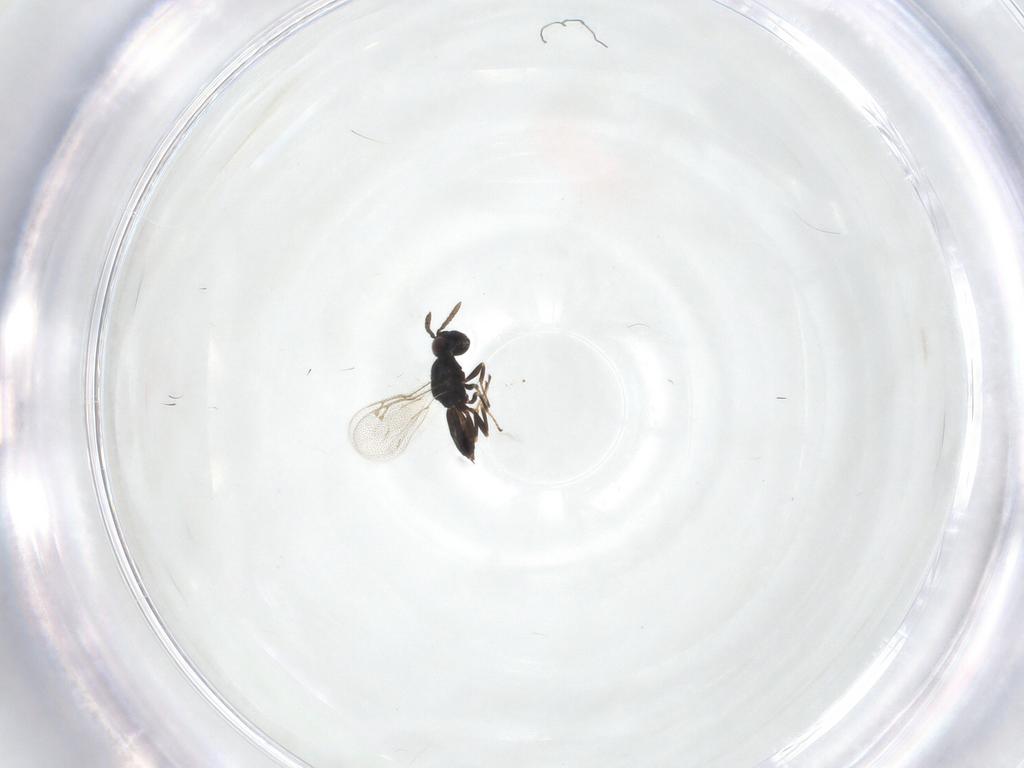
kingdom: Animalia
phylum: Arthropoda
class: Insecta
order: Hymenoptera
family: Pteromalidae
